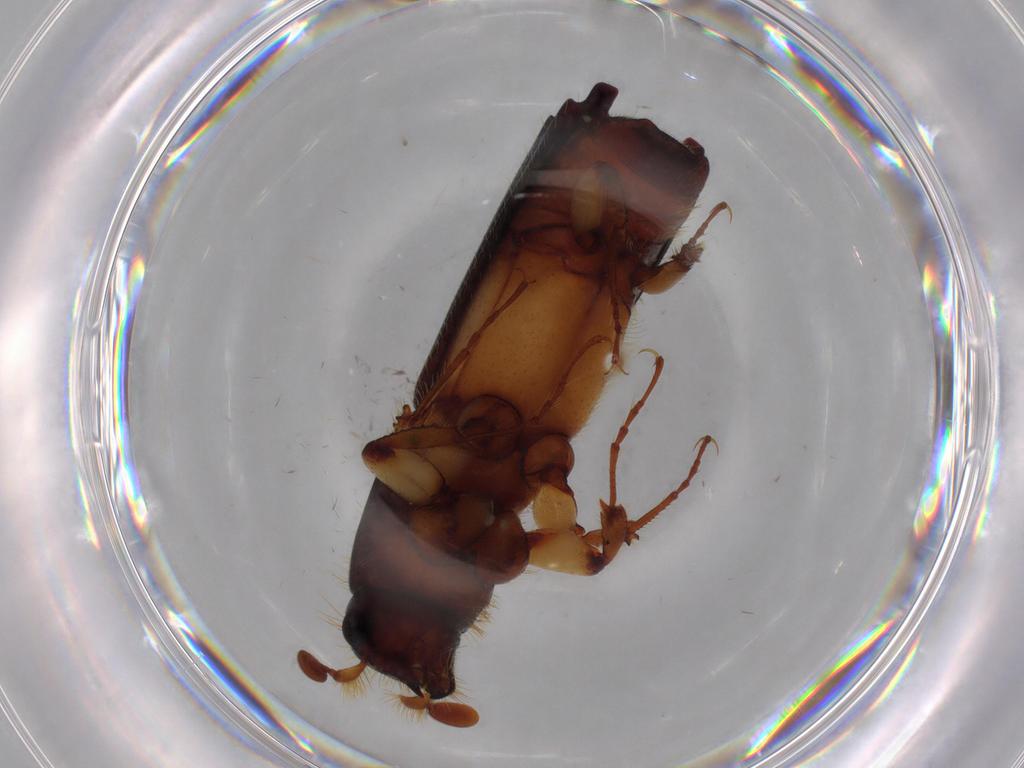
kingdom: Animalia
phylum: Arthropoda
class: Insecta
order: Coleoptera
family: Curculionidae
